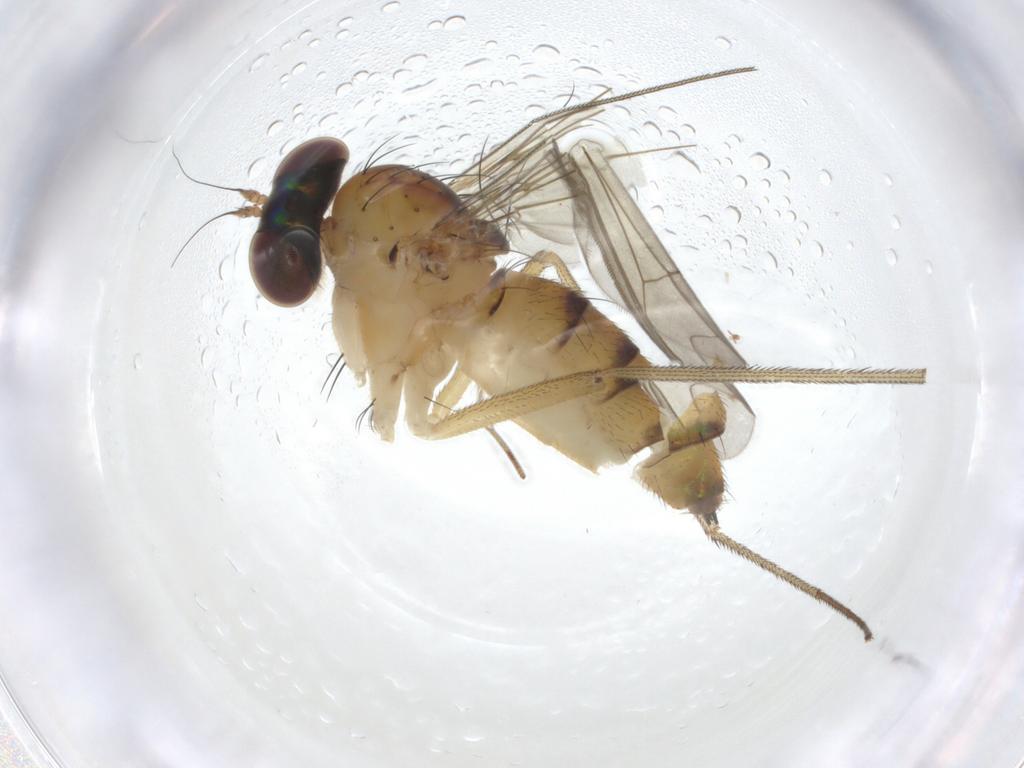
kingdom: Animalia
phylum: Arthropoda
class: Insecta
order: Diptera
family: Dolichopodidae
